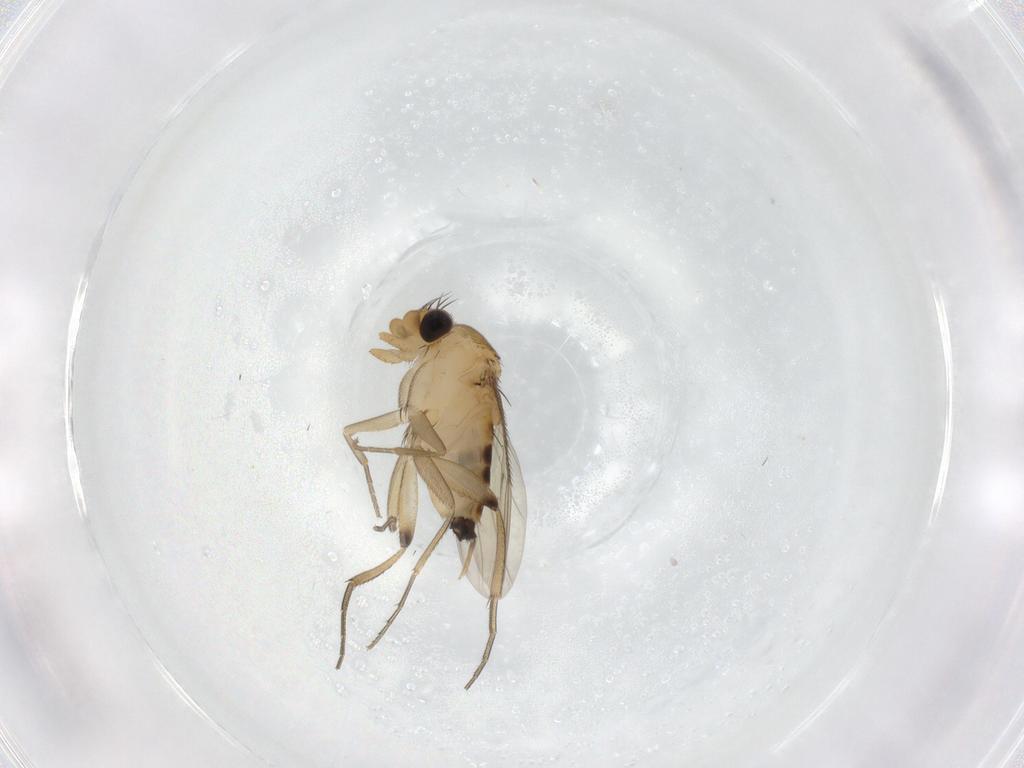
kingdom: Animalia
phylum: Arthropoda
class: Insecta
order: Diptera
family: Phoridae
